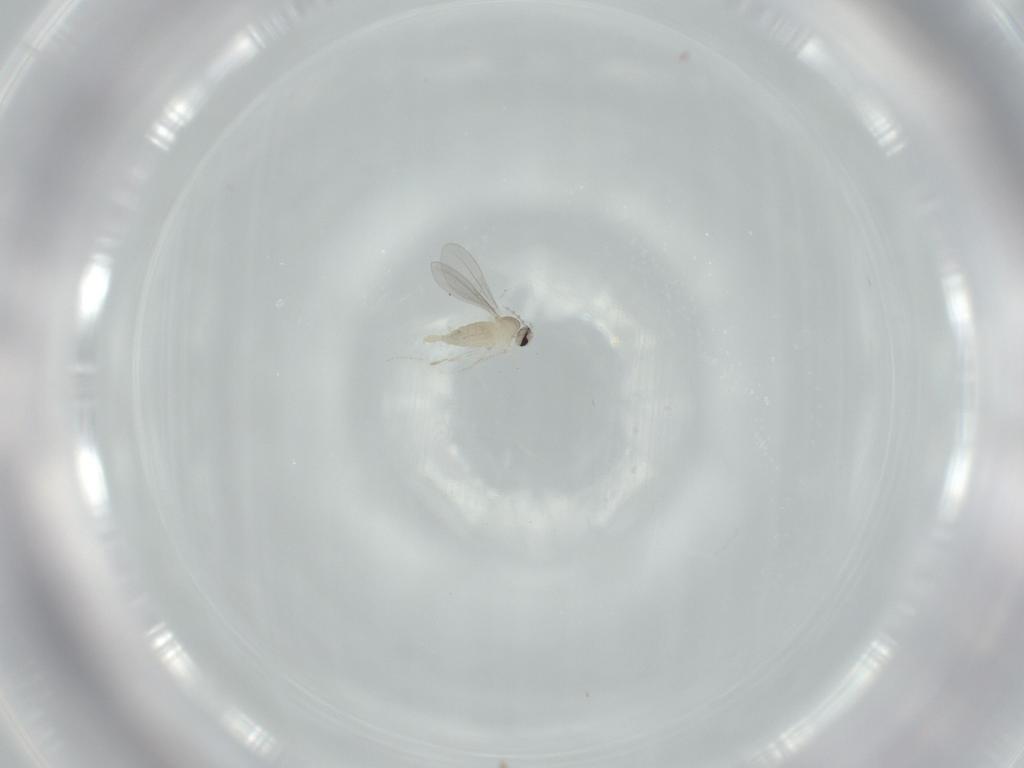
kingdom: Animalia
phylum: Arthropoda
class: Insecta
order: Diptera
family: Cecidomyiidae
